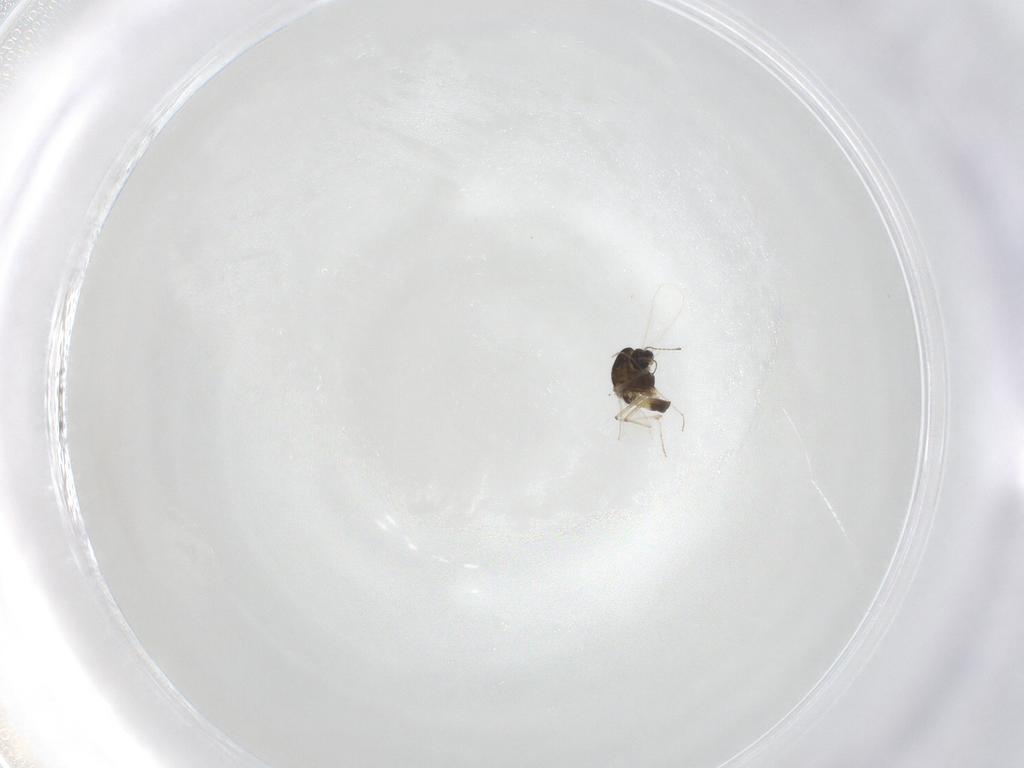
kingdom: Animalia
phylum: Arthropoda
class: Insecta
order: Diptera
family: Chironomidae
